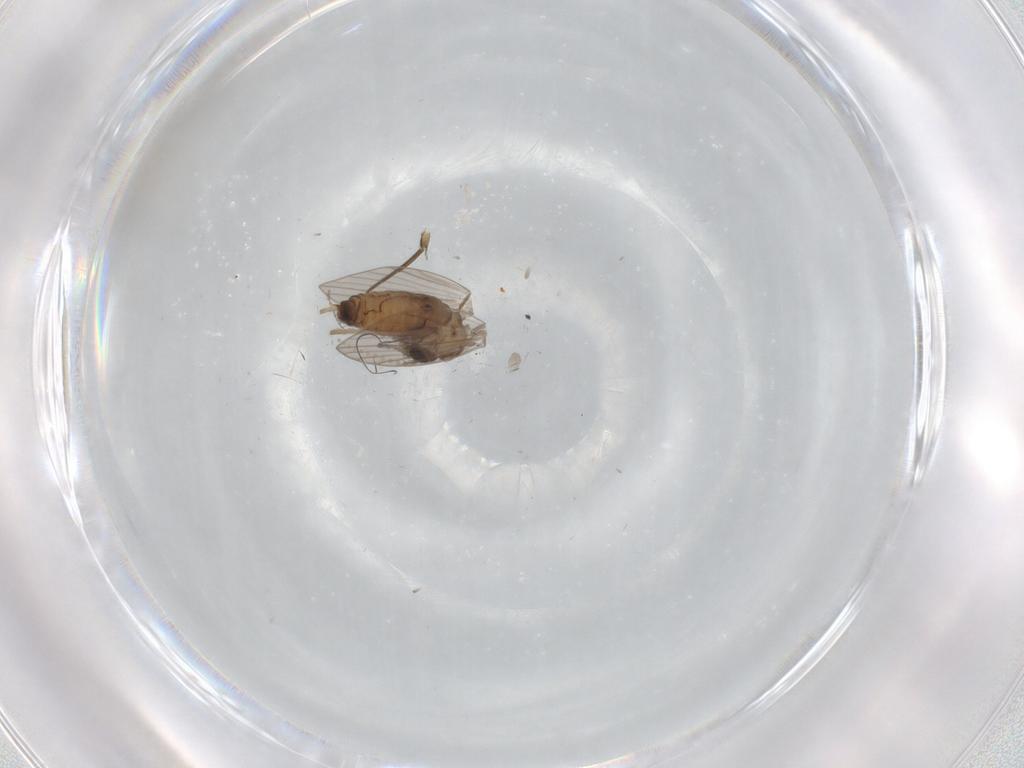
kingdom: Animalia
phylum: Arthropoda
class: Insecta
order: Diptera
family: Psychodidae
